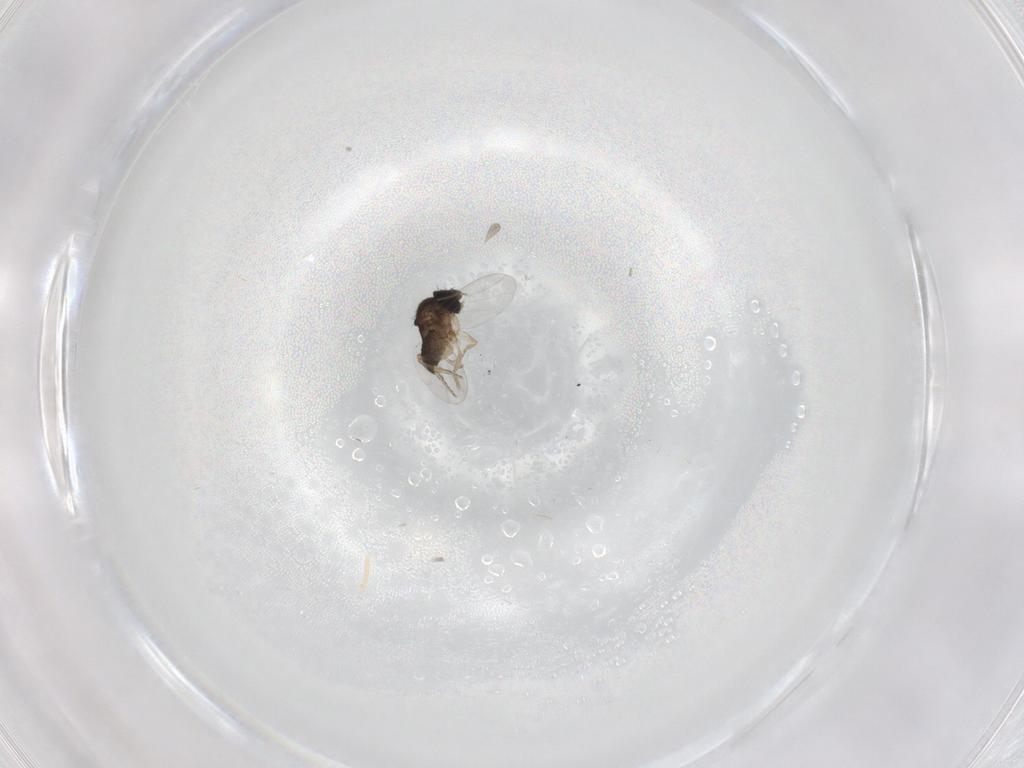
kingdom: Animalia
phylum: Arthropoda
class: Insecta
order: Diptera
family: Phoridae
